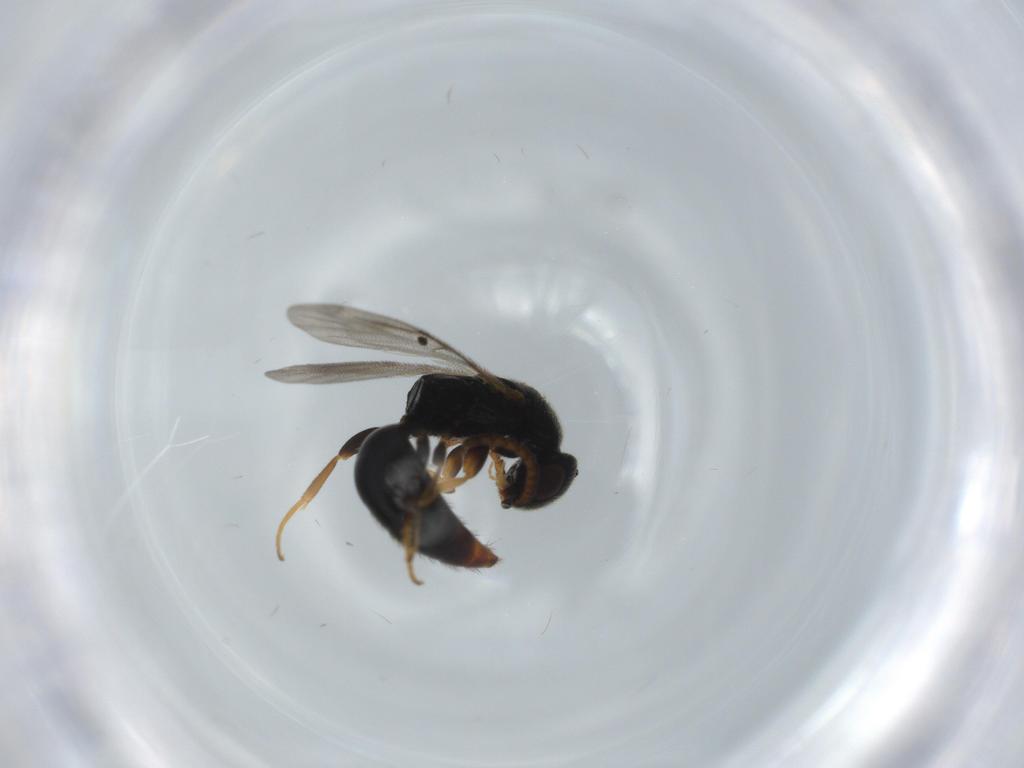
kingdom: Animalia
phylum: Arthropoda
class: Insecta
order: Hymenoptera
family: Bethylidae
